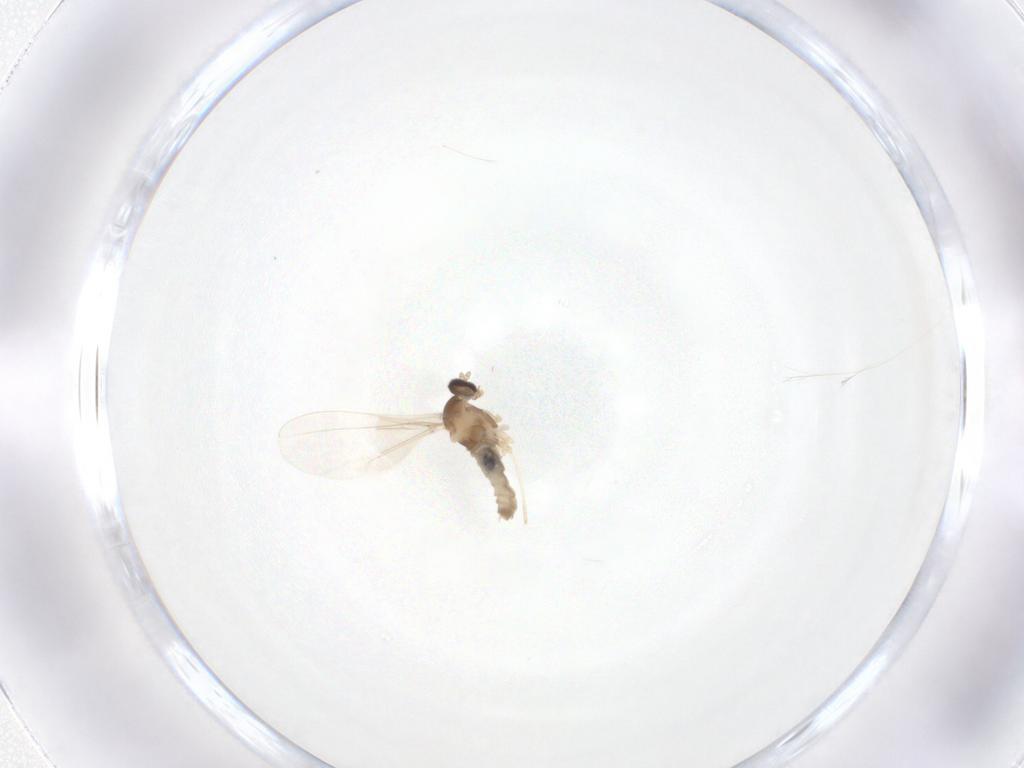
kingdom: Animalia
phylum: Arthropoda
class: Insecta
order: Diptera
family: Cecidomyiidae
